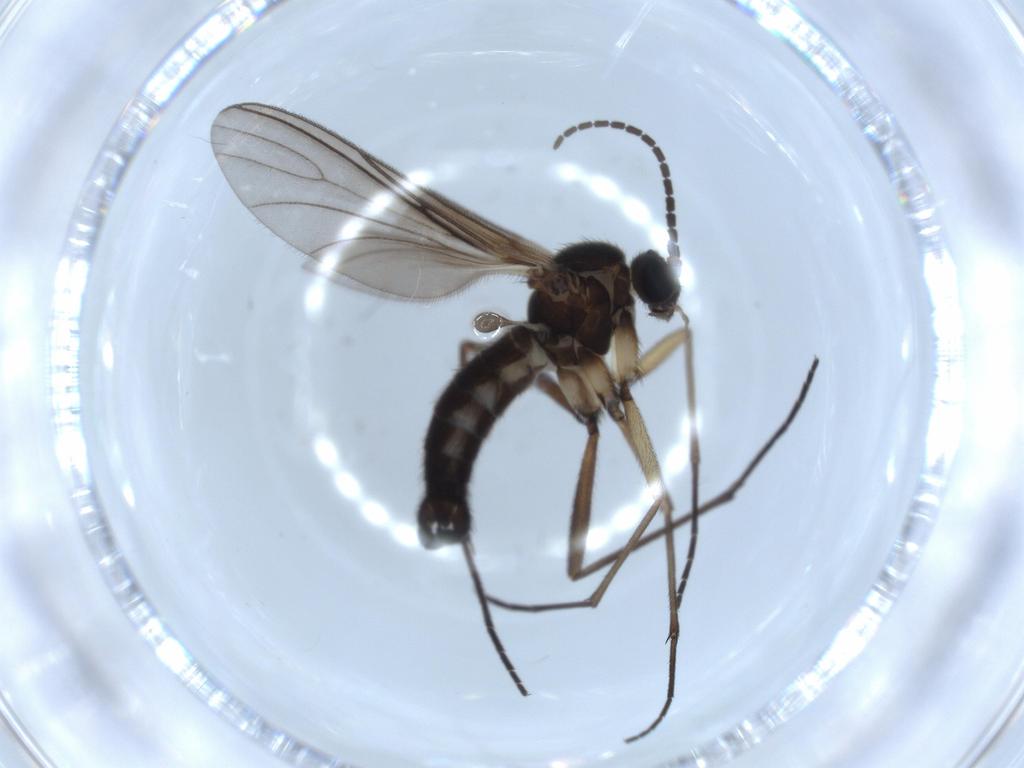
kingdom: Animalia
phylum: Arthropoda
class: Insecta
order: Diptera
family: Sciaridae
